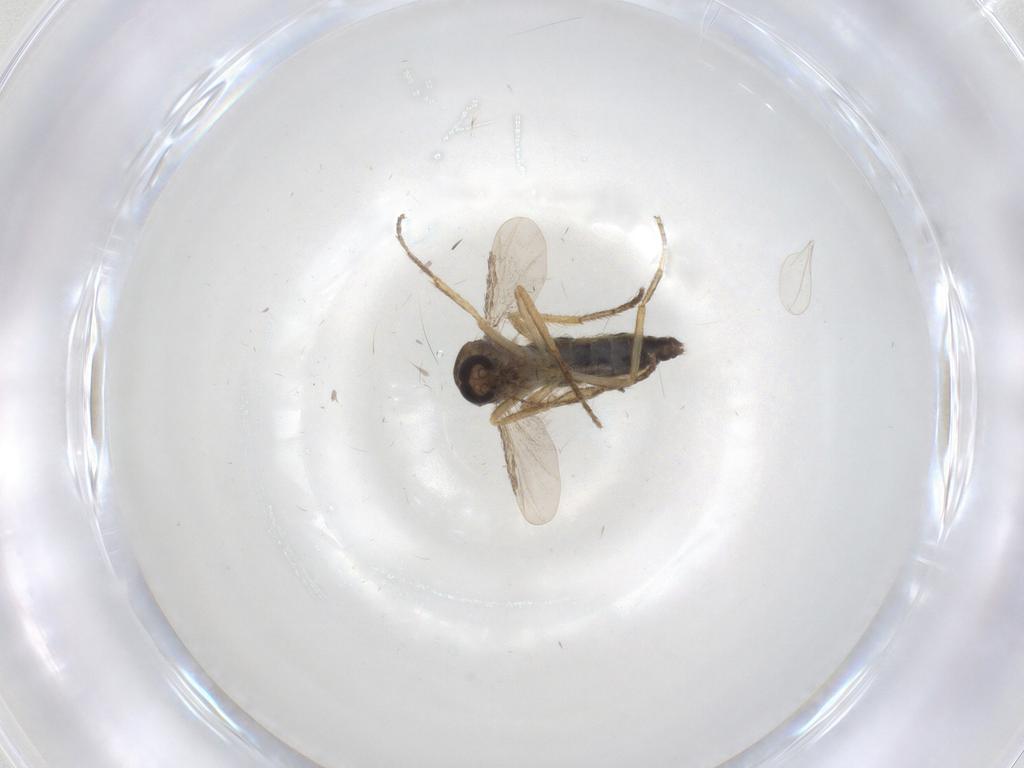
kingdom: Animalia
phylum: Arthropoda
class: Insecta
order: Diptera
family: Ceratopogonidae
